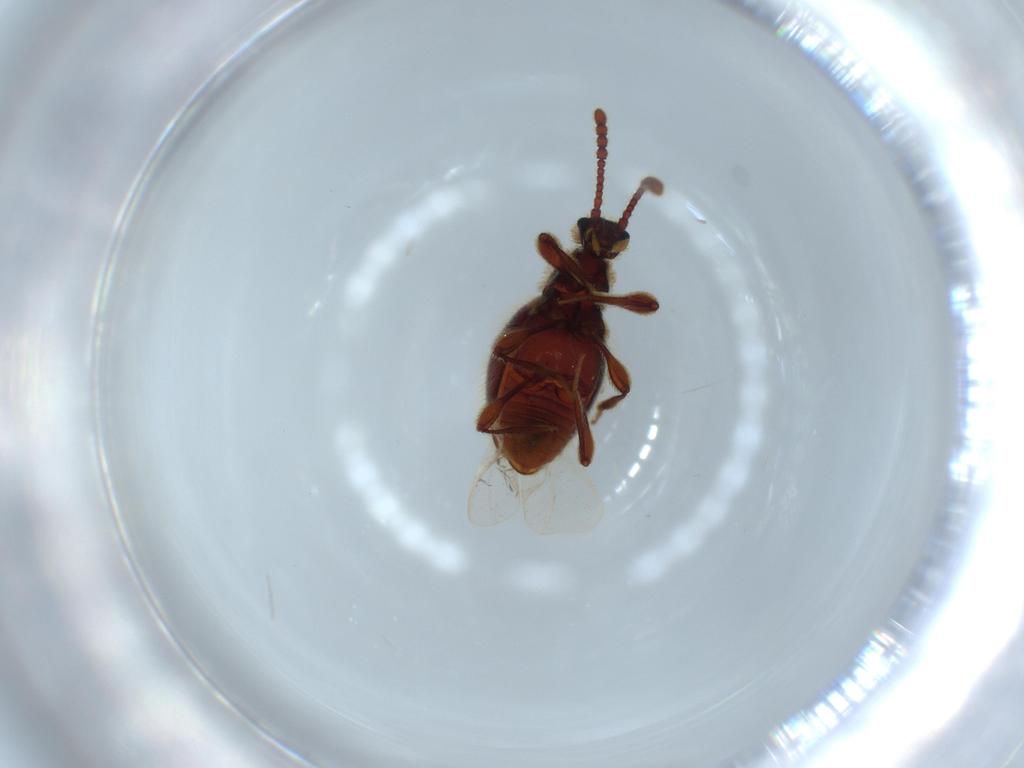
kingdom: Animalia
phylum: Arthropoda
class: Insecta
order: Coleoptera
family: Staphylinidae
